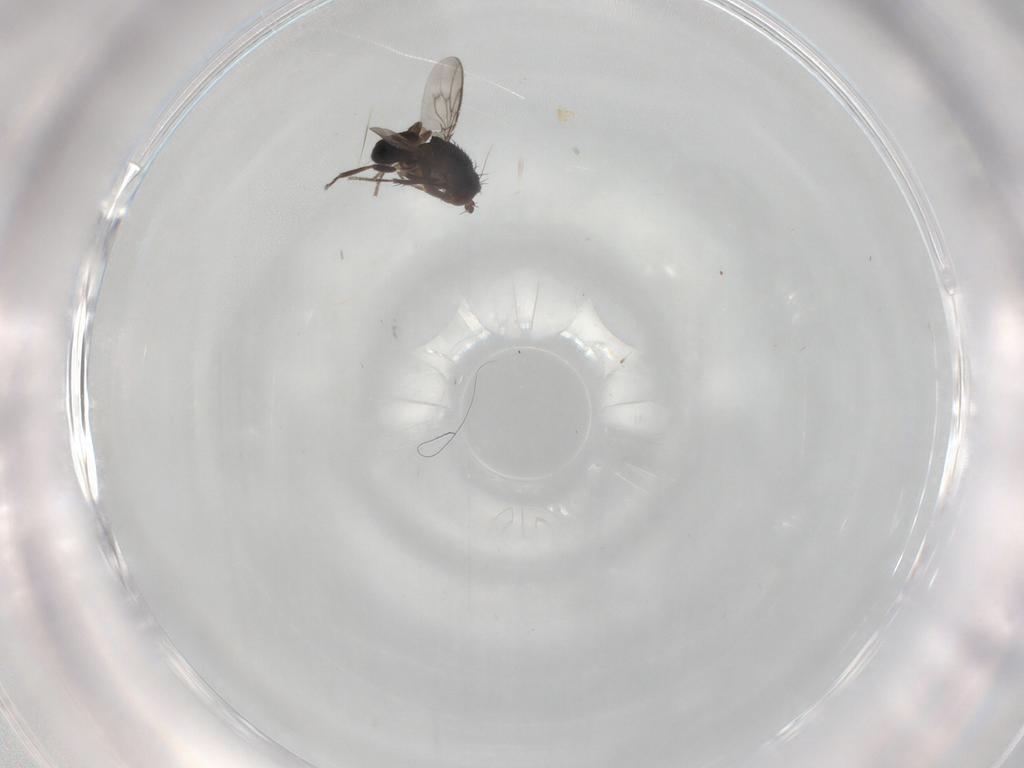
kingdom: Animalia
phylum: Arthropoda
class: Insecta
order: Diptera
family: Sphaeroceridae
